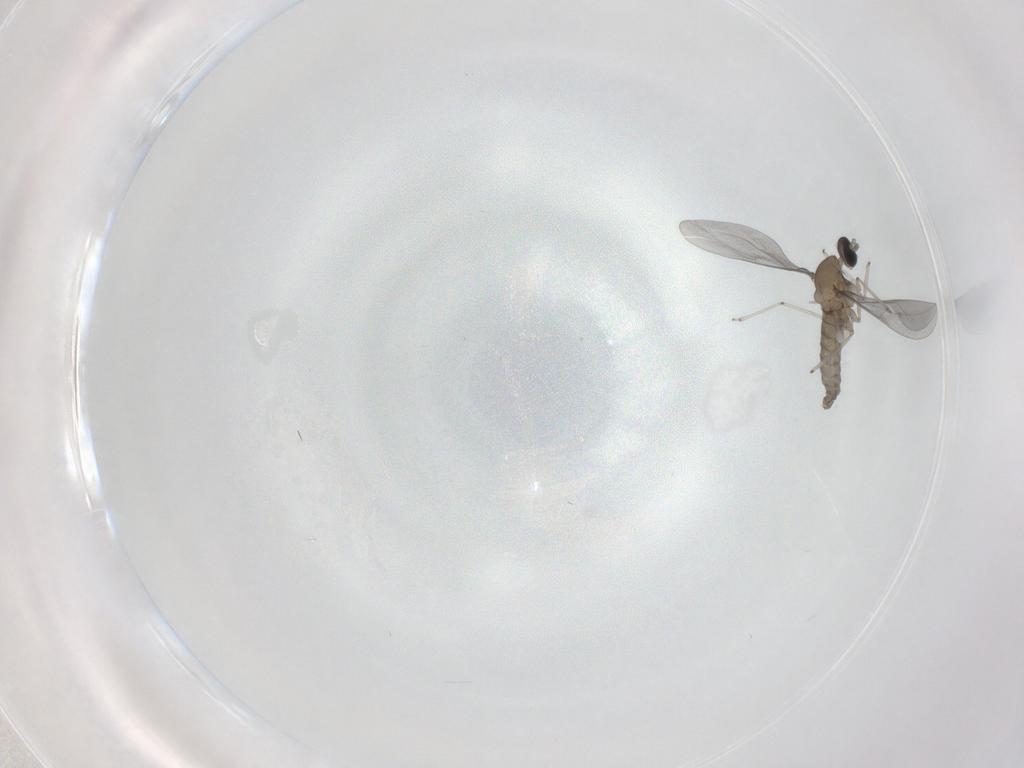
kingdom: Animalia
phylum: Arthropoda
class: Insecta
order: Diptera
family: Cecidomyiidae
